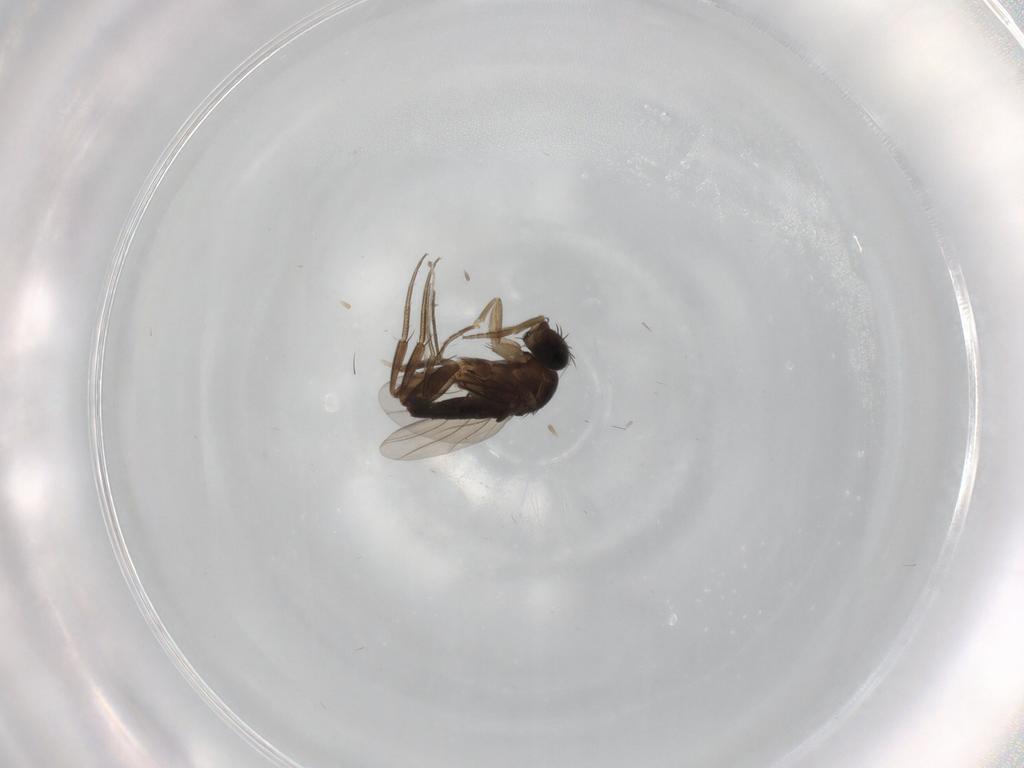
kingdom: Animalia
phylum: Arthropoda
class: Insecta
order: Diptera
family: Phoridae
